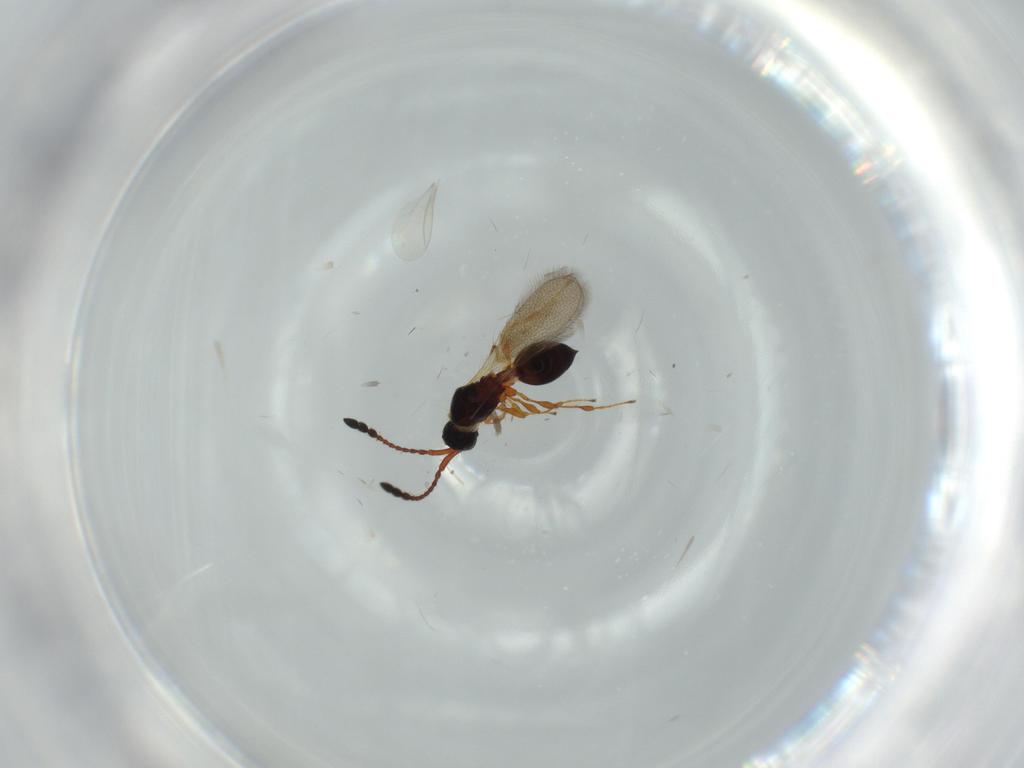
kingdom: Animalia
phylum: Arthropoda
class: Insecta
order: Hymenoptera
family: Diapriidae
